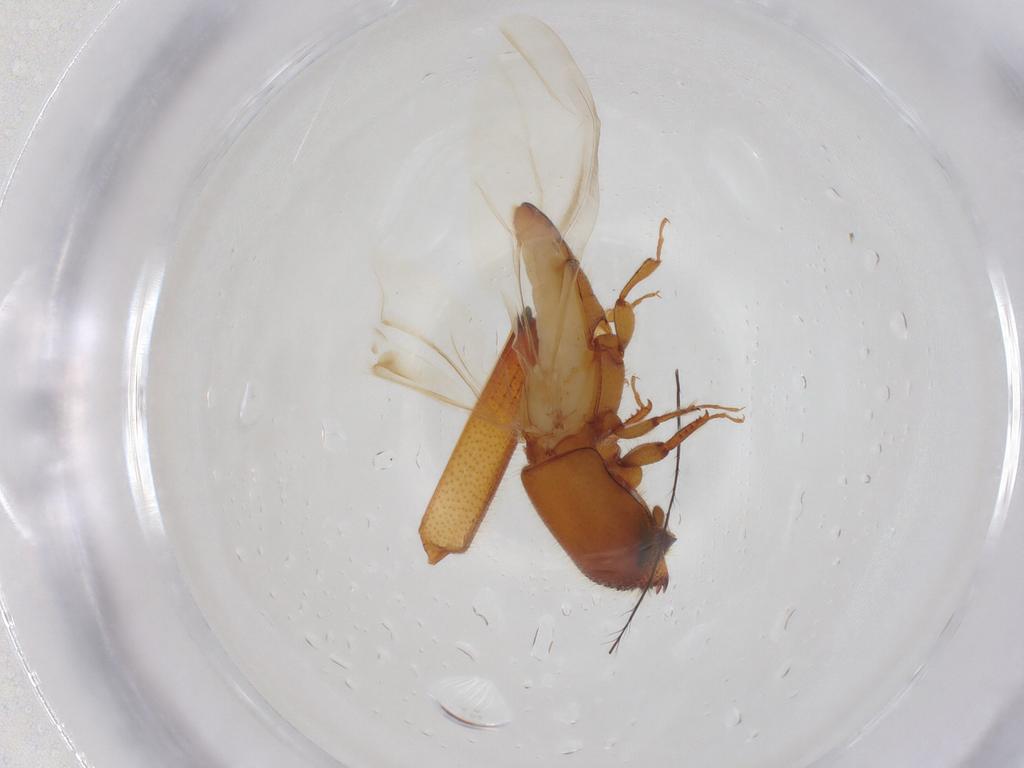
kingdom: Animalia
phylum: Arthropoda
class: Insecta
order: Coleoptera
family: Curculionidae
